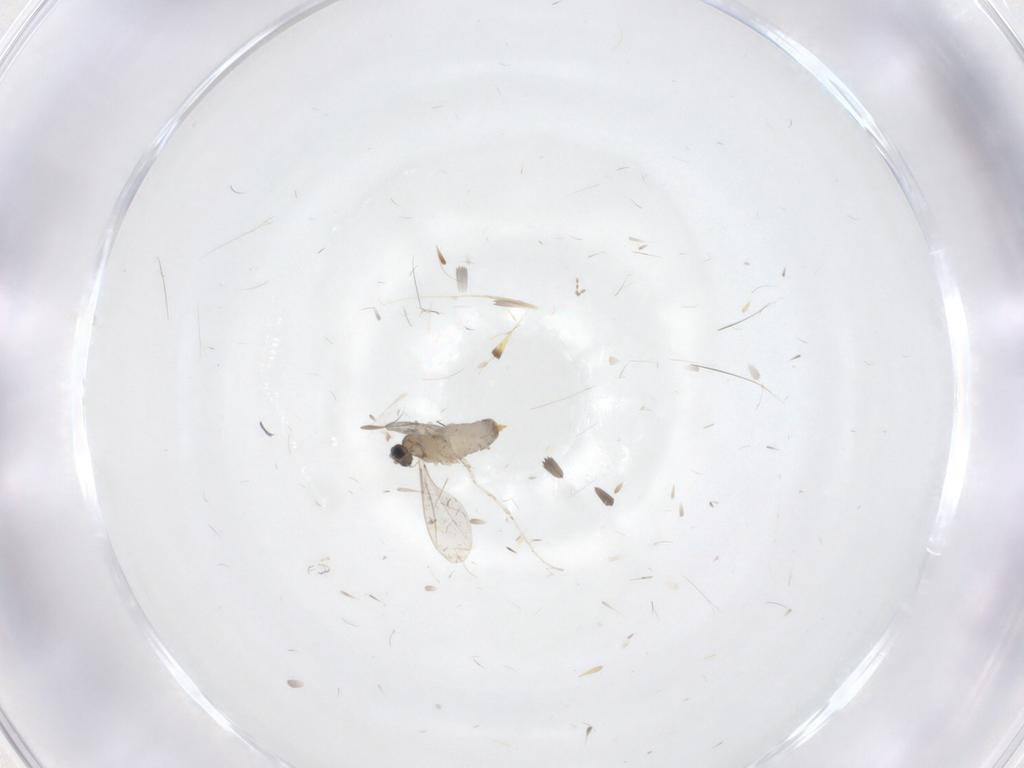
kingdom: Animalia
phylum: Arthropoda
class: Insecta
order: Diptera
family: Cecidomyiidae
